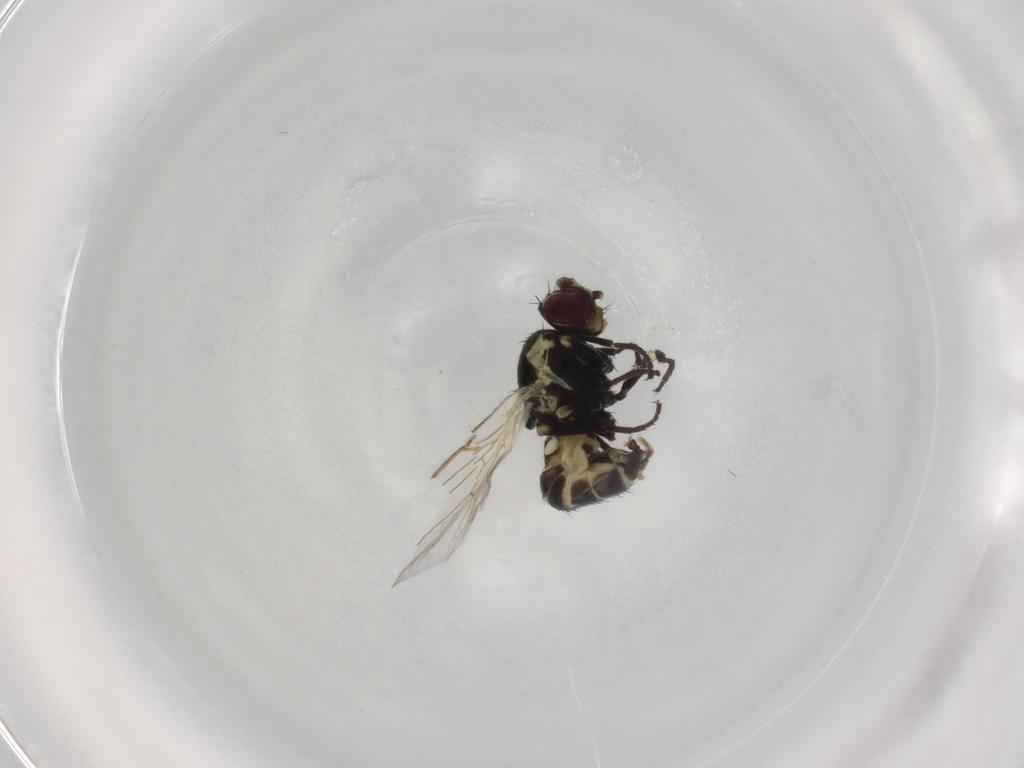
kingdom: Animalia
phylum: Arthropoda
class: Insecta
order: Diptera
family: Agromyzidae
